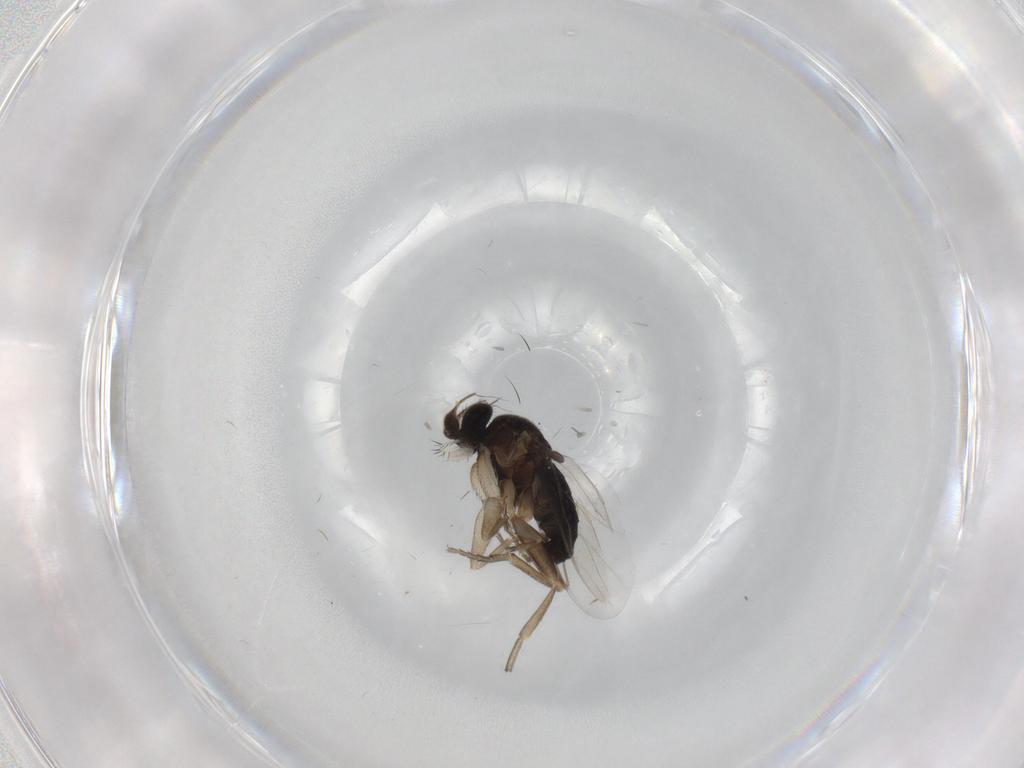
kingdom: Animalia
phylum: Arthropoda
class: Insecta
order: Diptera
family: Phoridae
